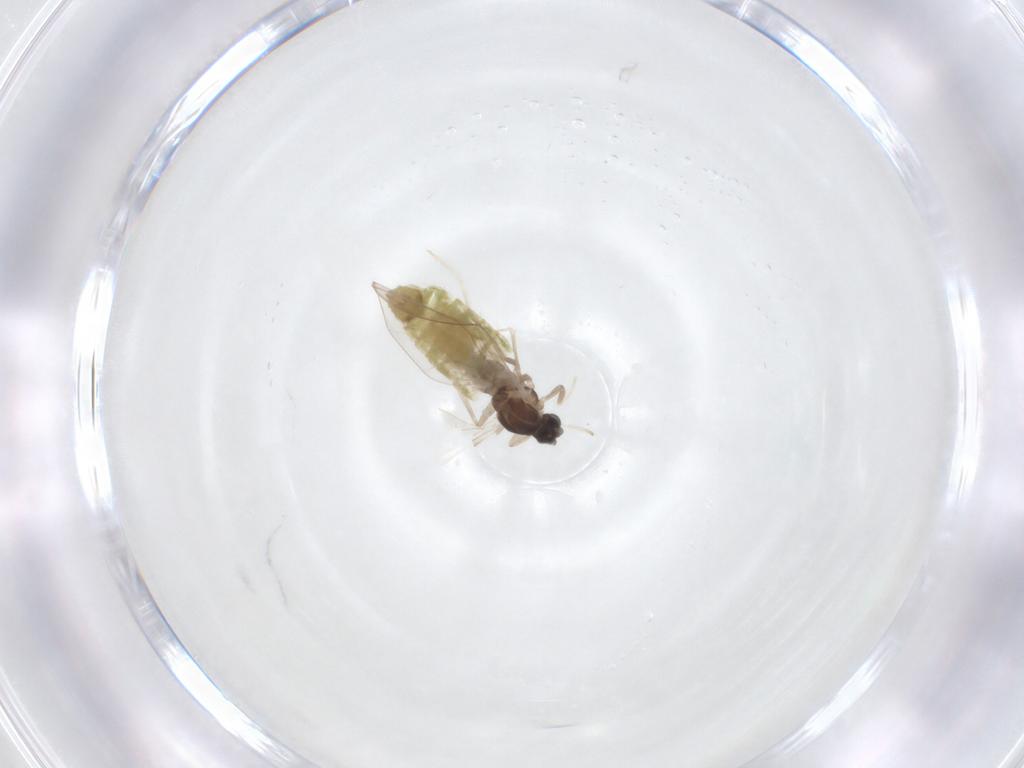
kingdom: Animalia
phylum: Arthropoda
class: Insecta
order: Diptera
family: Chironomidae
